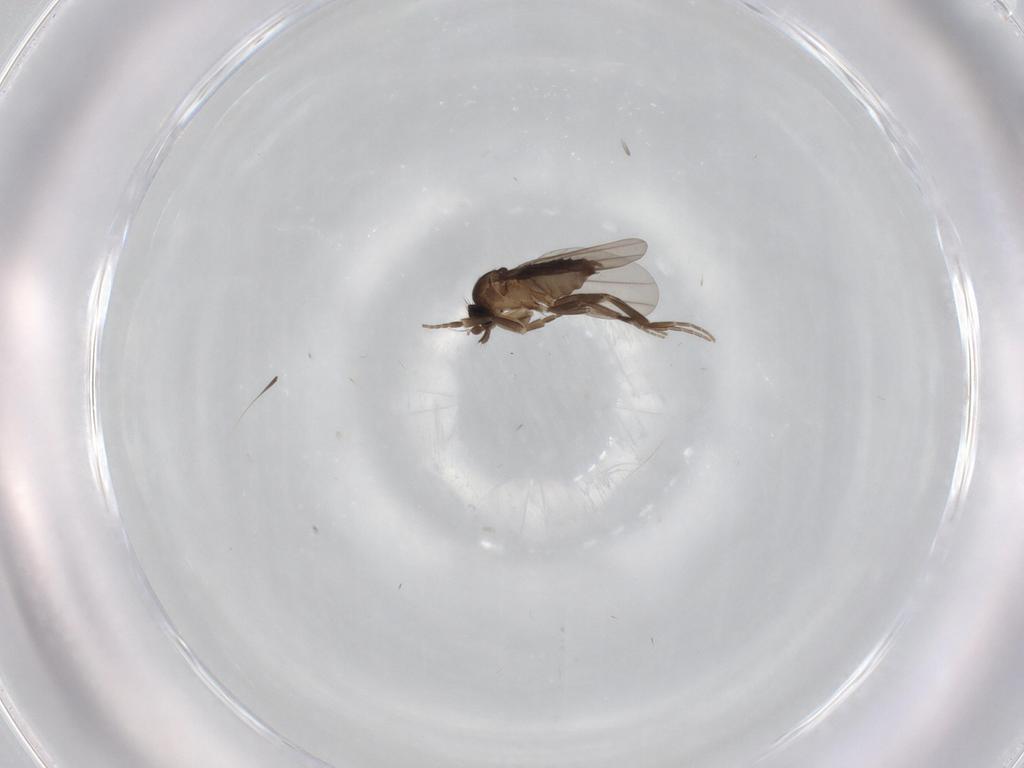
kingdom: Animalia
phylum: Arthropoda
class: Insecta
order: Diptera
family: Phoridae
